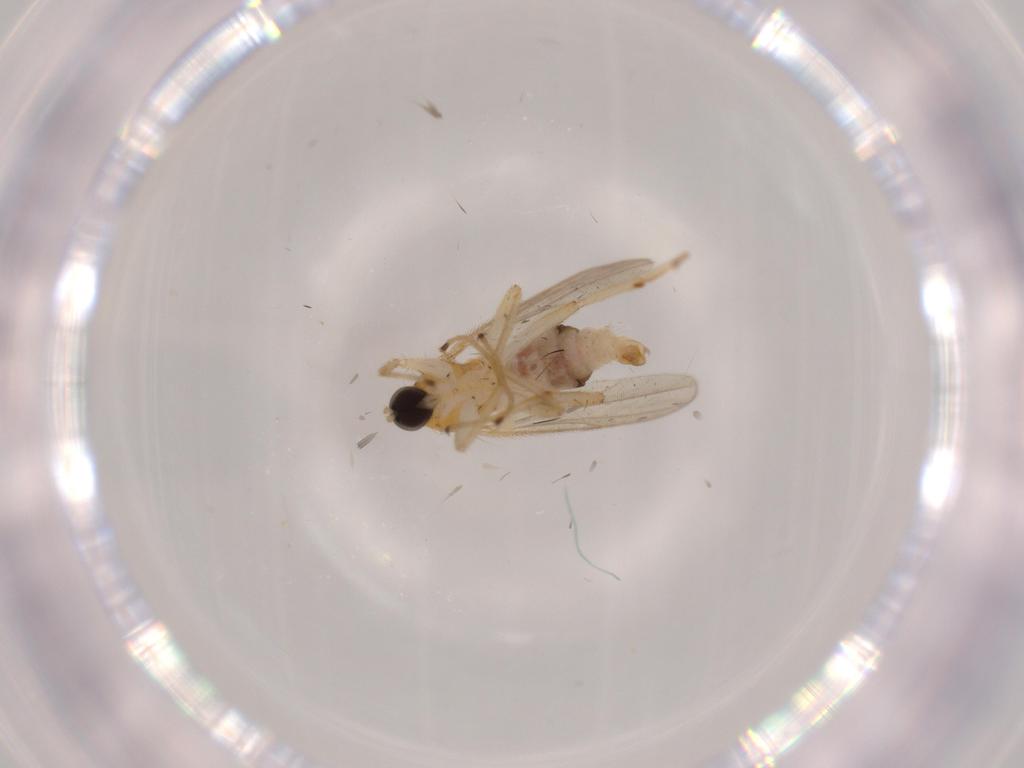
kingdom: Animalia
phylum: Arthropoda
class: Insecta
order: Diptera
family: Hybotidae
